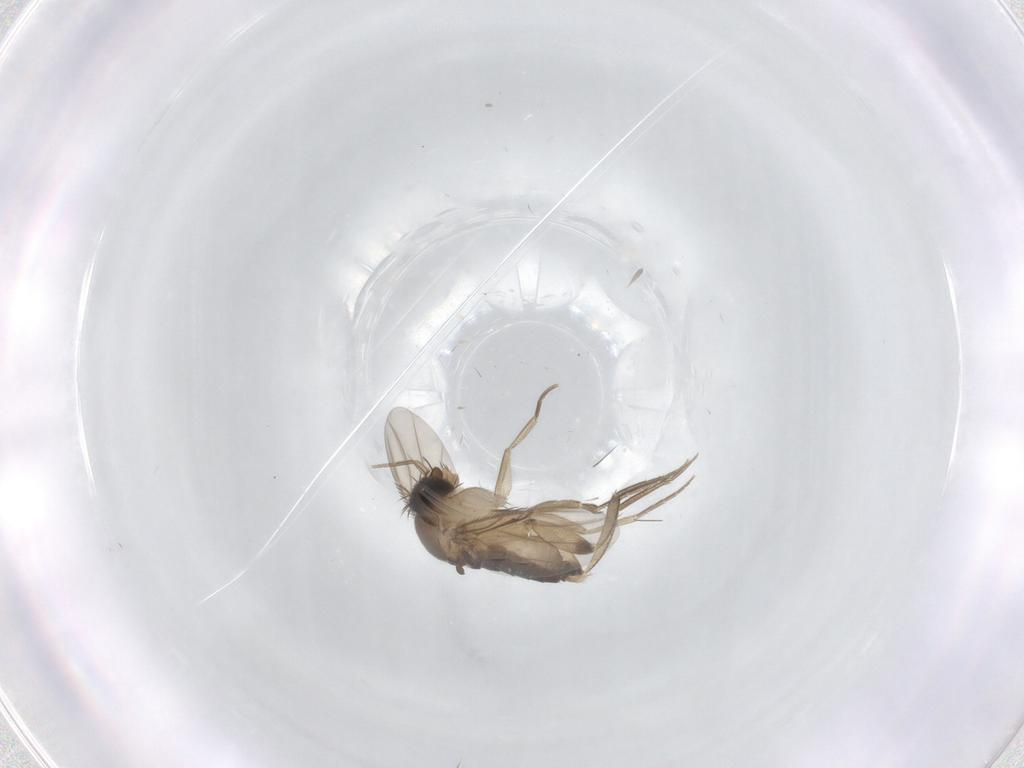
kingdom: Animalia
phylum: Arthropoda
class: Insecta
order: Diptera
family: Phoridae
